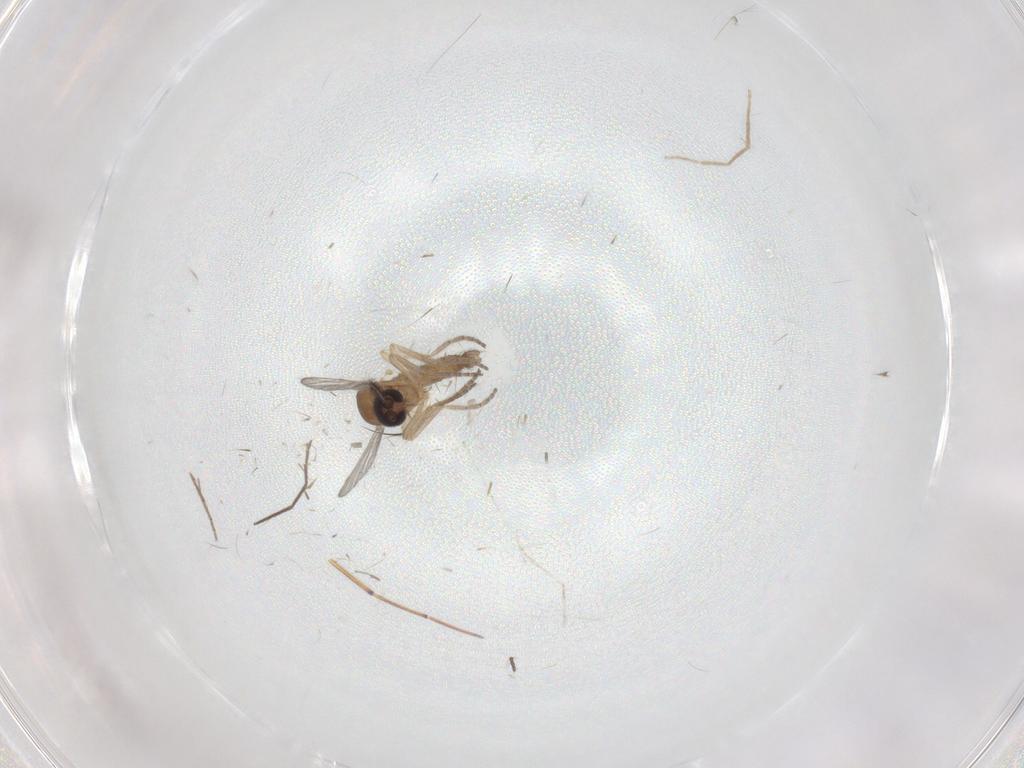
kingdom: Animalia
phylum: Arthropoda
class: Insecta
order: Diptera
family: Ceratopogonidae
